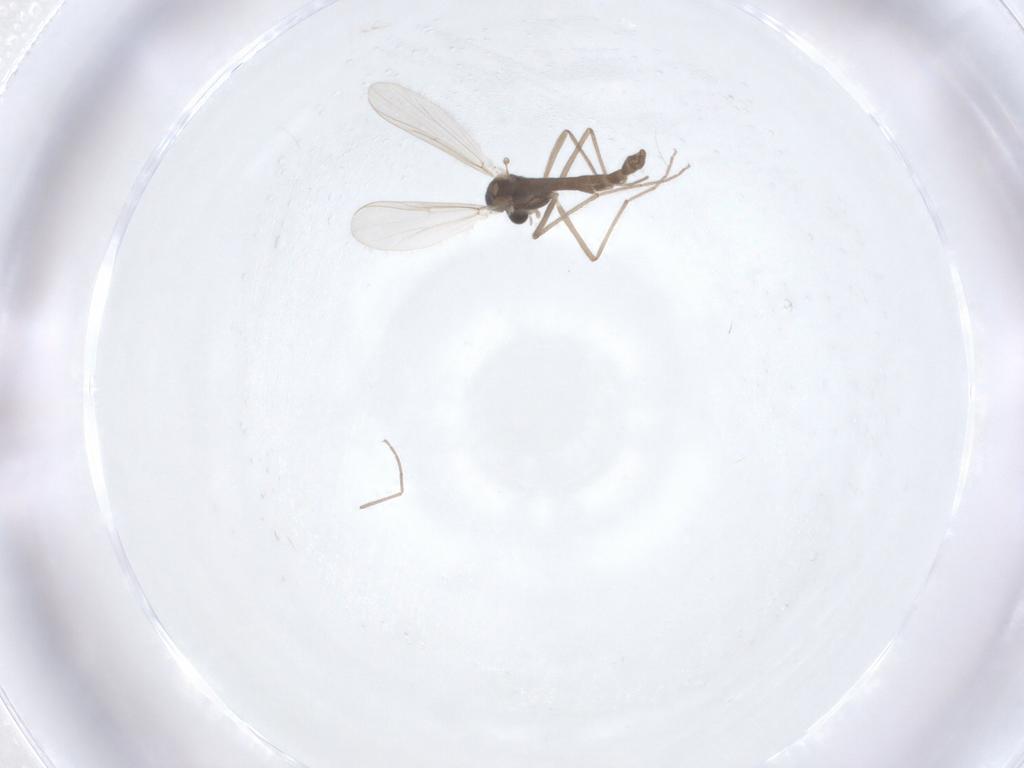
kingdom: Animalia
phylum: Arthropoda
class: Insecta
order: Diptera
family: Chironomidae
